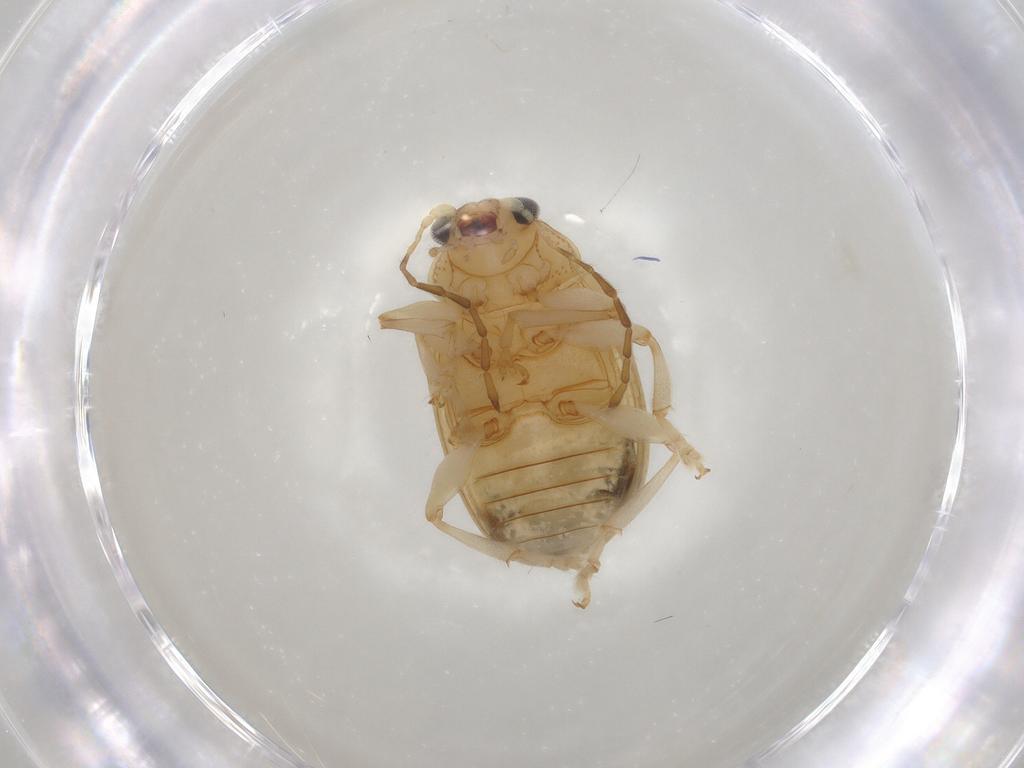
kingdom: Animalia
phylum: Arthropoda
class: Insecta
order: Coleoptera
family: Chrysomelidae
